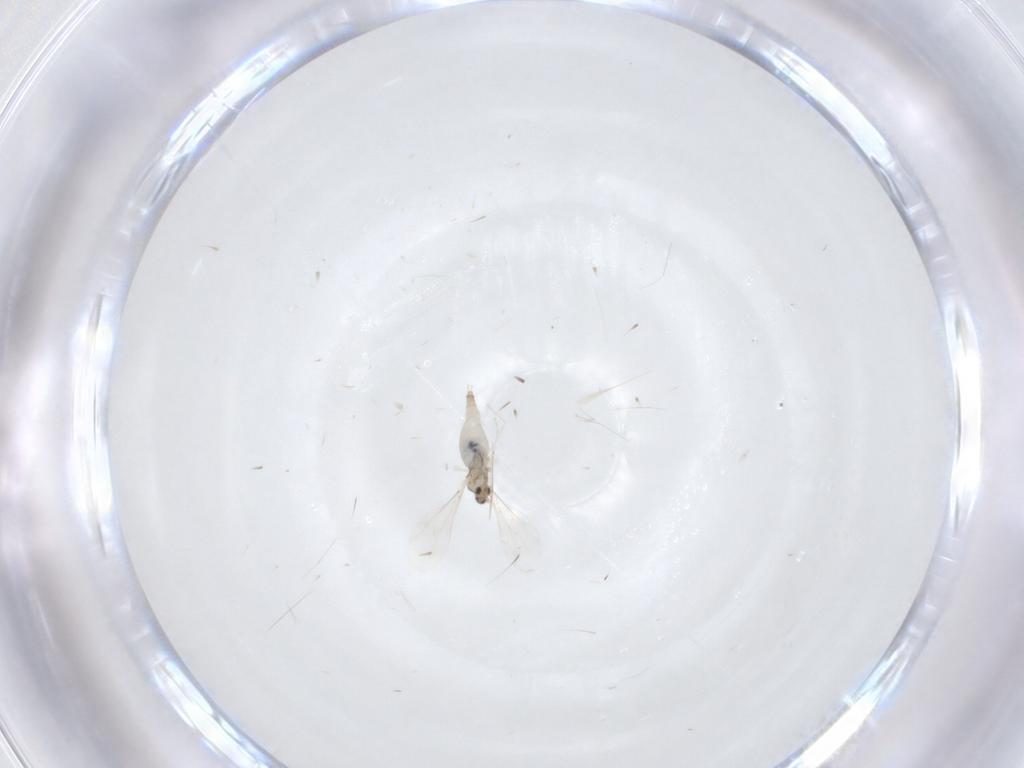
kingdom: Animalia
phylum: Arthropoda
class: Insecta
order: Diptera
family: Cecidomyiidae
